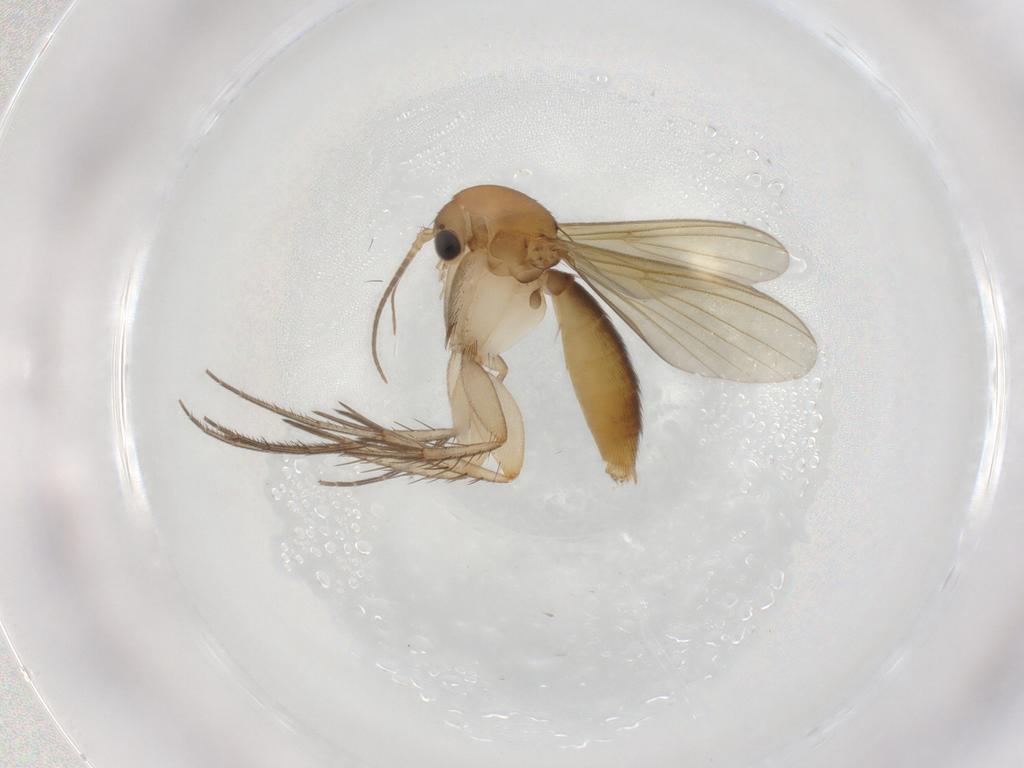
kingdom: Animalia
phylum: Arthropoda
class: Insecta
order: Diptera
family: Mycetophilidae
